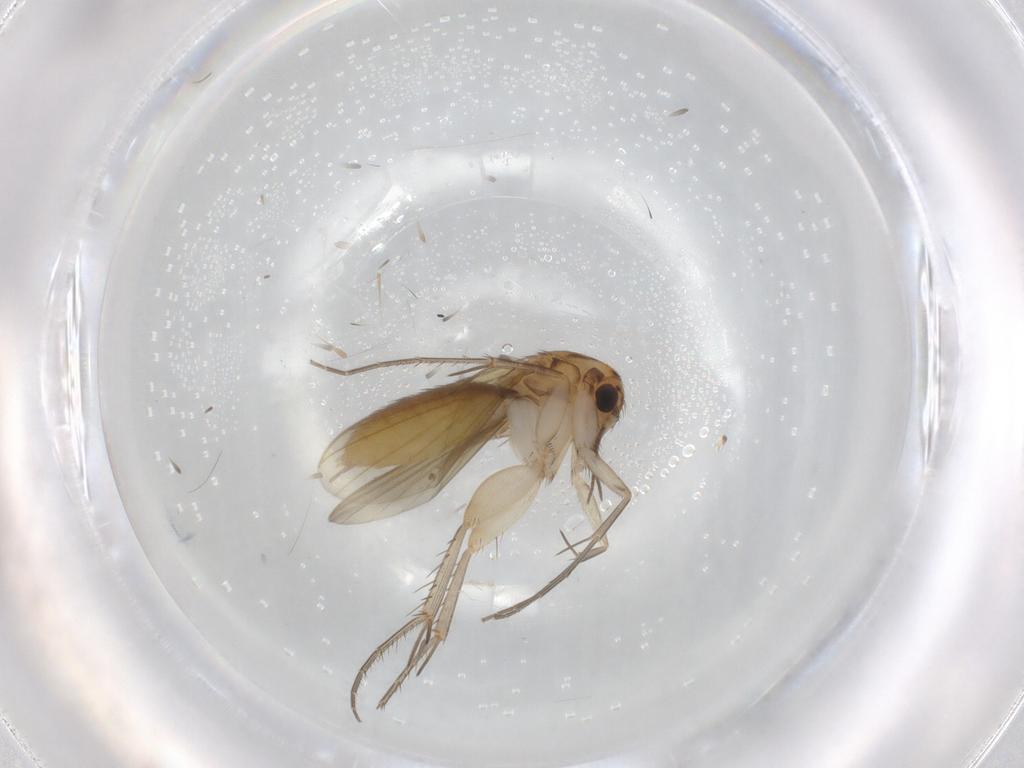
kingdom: Animalia
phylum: Arthropoda
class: Insecta
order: Diptera
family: Mycetophilidae
